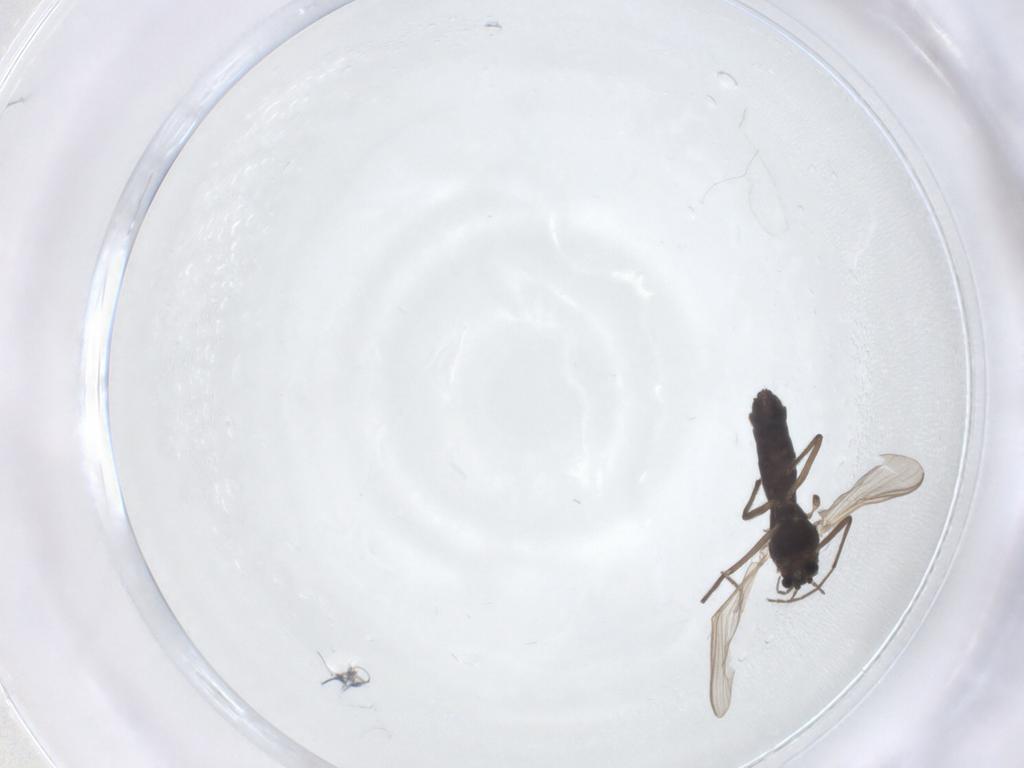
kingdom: Animalia
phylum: Arthropoda
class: Insecta
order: Diptera
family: Chironomidae
